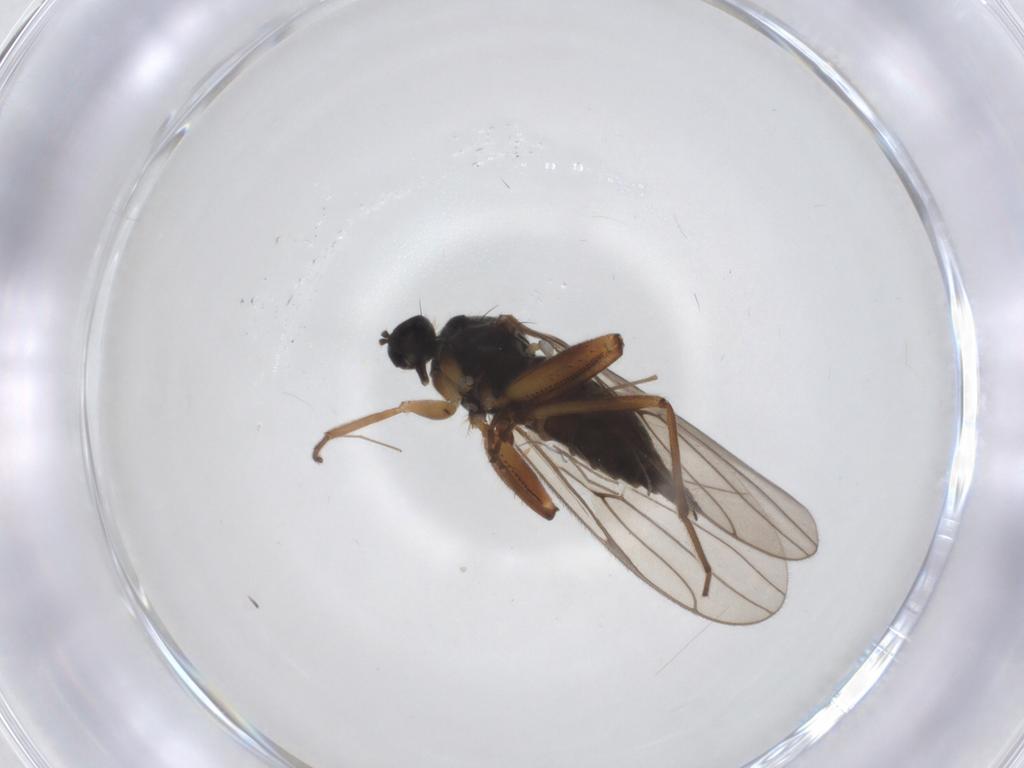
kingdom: Animalia
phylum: Arthropoda
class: Insecta
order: Diptera
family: Hybotidae
